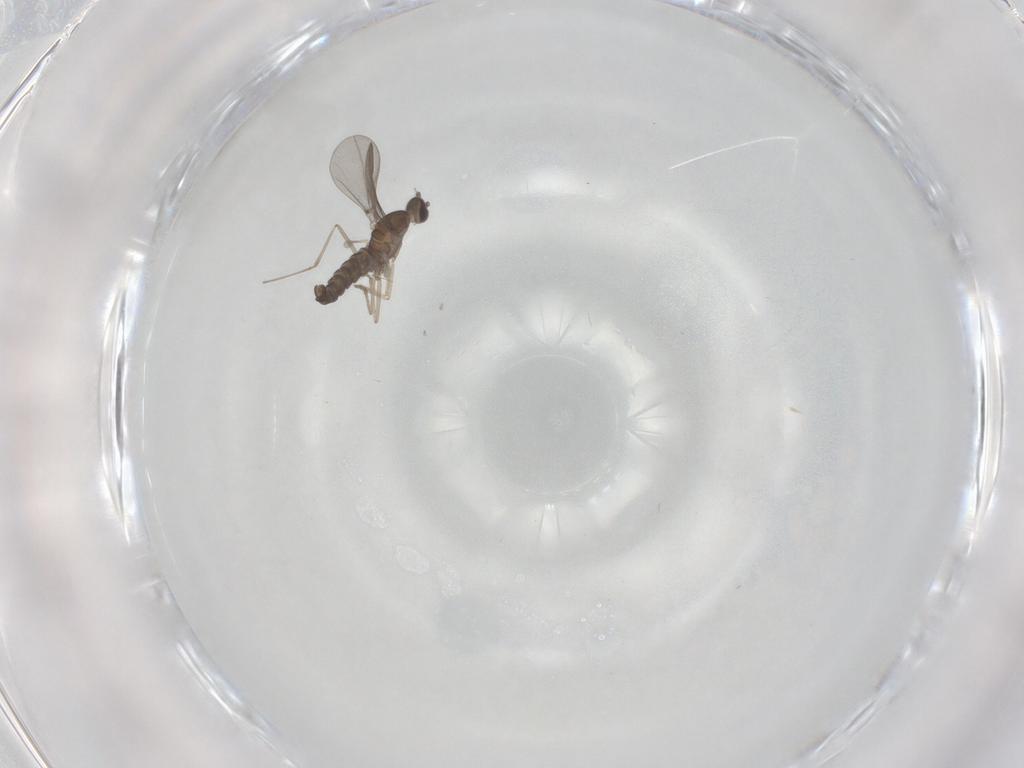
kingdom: Animalia
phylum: Arthropoda
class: Insecta
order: Diptera
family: Cecidomyiidae
